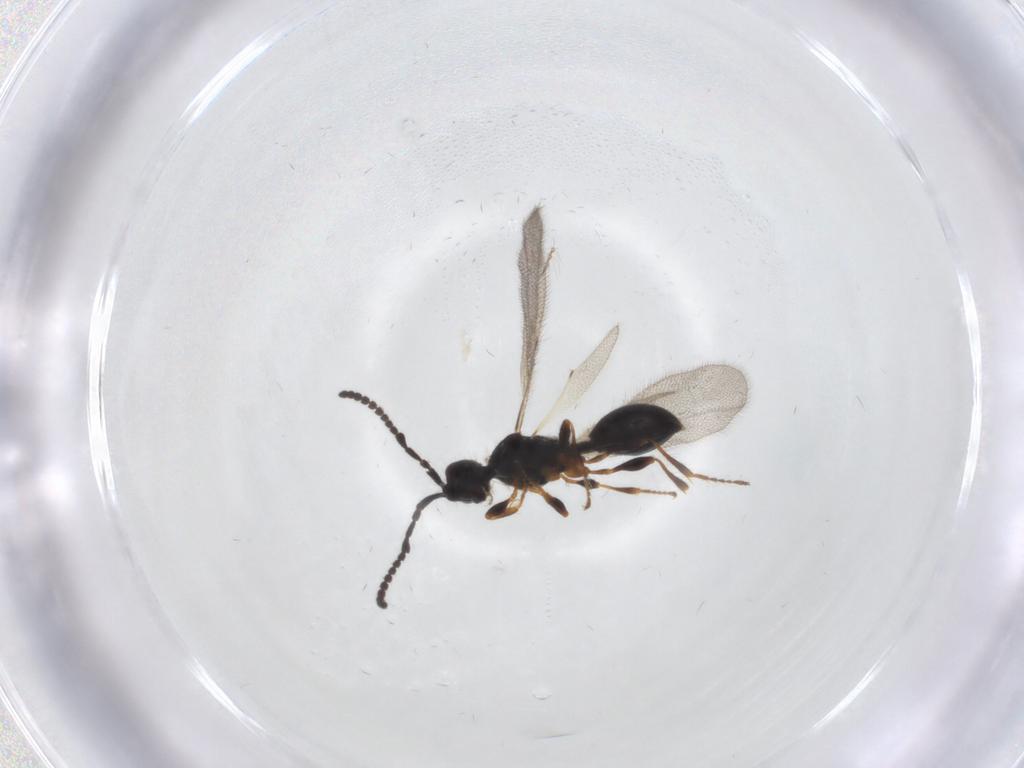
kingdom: Animalia
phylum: Arthropoda
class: Insecta
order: Hymenoptera
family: Diapriidae
